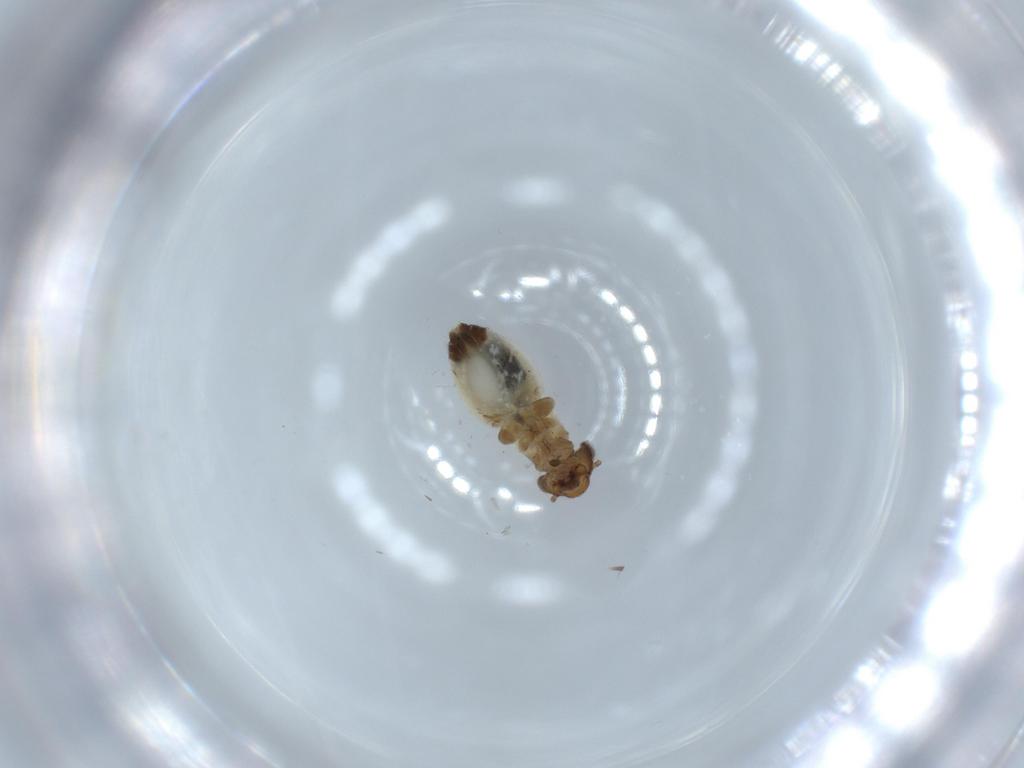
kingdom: Animalia
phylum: Arthropoda
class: Insecta
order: Psocodea
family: Lepidopsocidae
